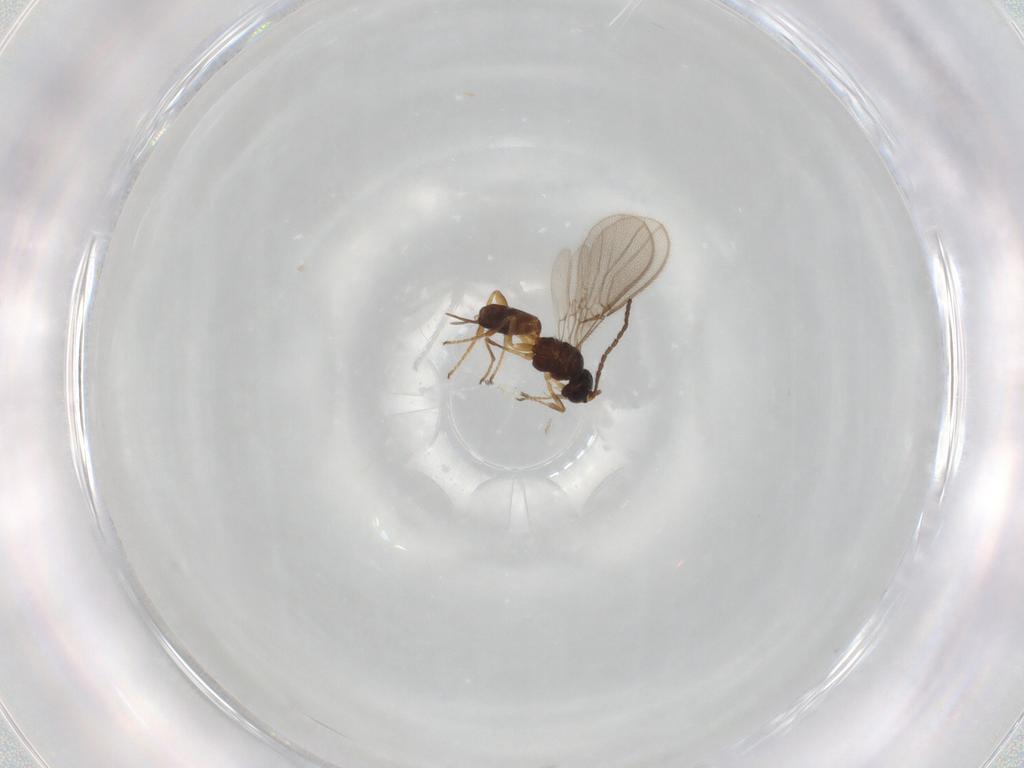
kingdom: Animalia
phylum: Arthropoda
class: Insecta
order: Hymenoptera
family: Braconidae
